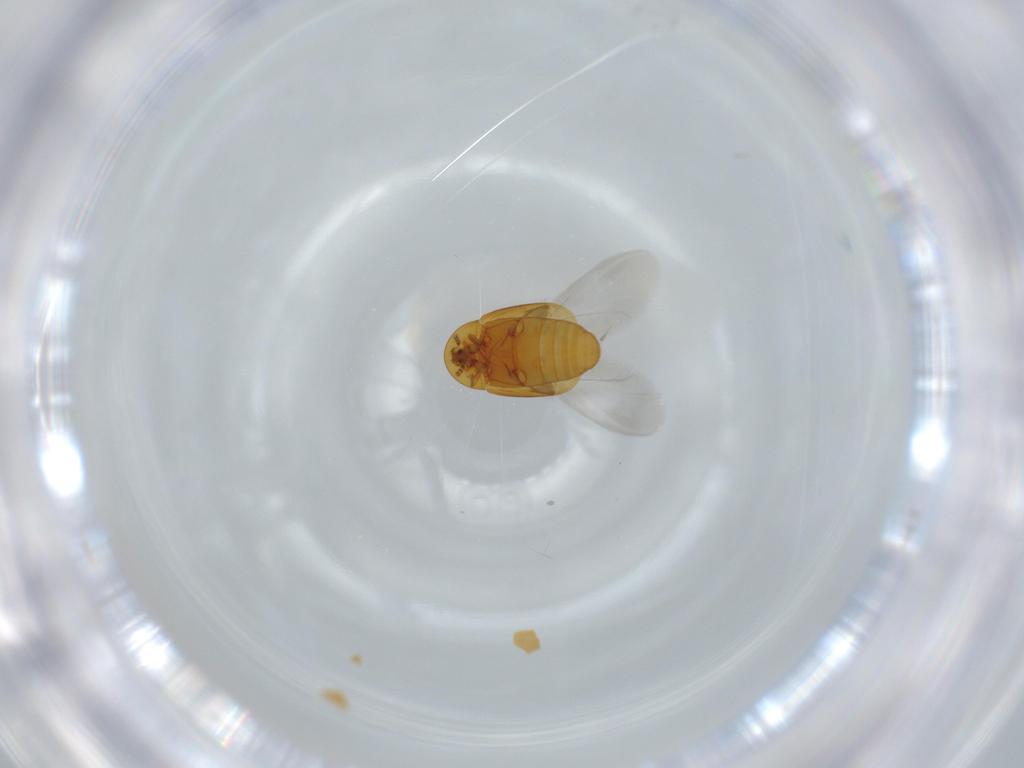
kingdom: Animalia
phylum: Arthropoda
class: Insecta
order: Coleoptera
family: Corylophidae
